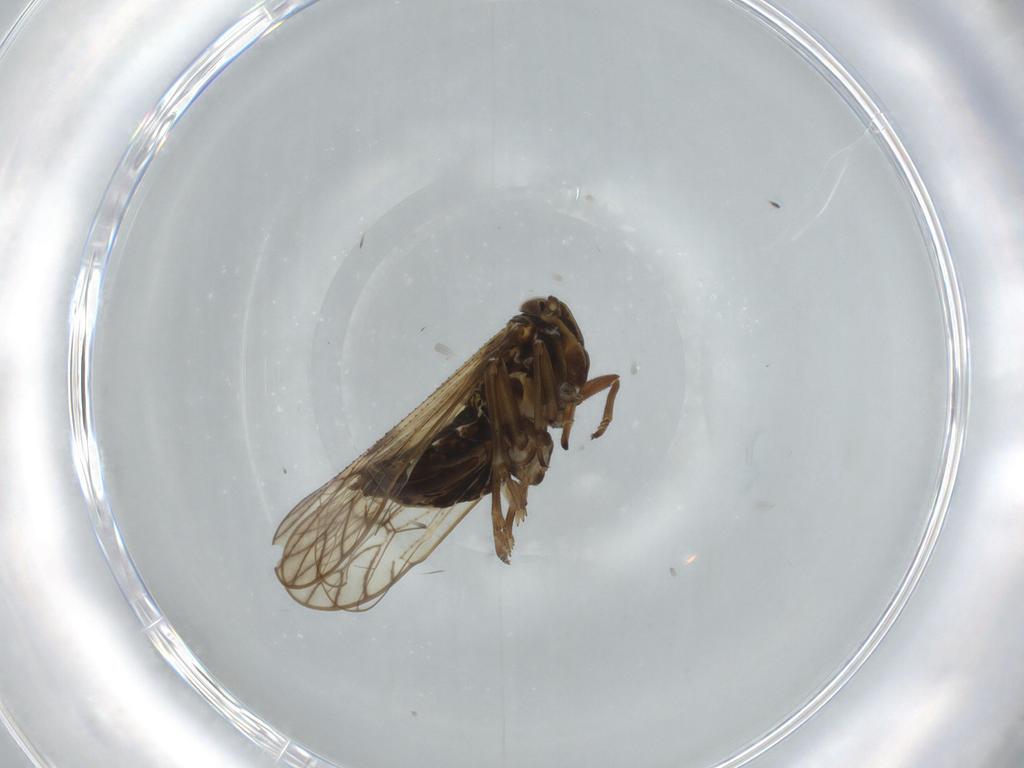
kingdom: Animalia
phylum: Arthropoda
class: Insecta
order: Hemiptera
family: Delphacidae
